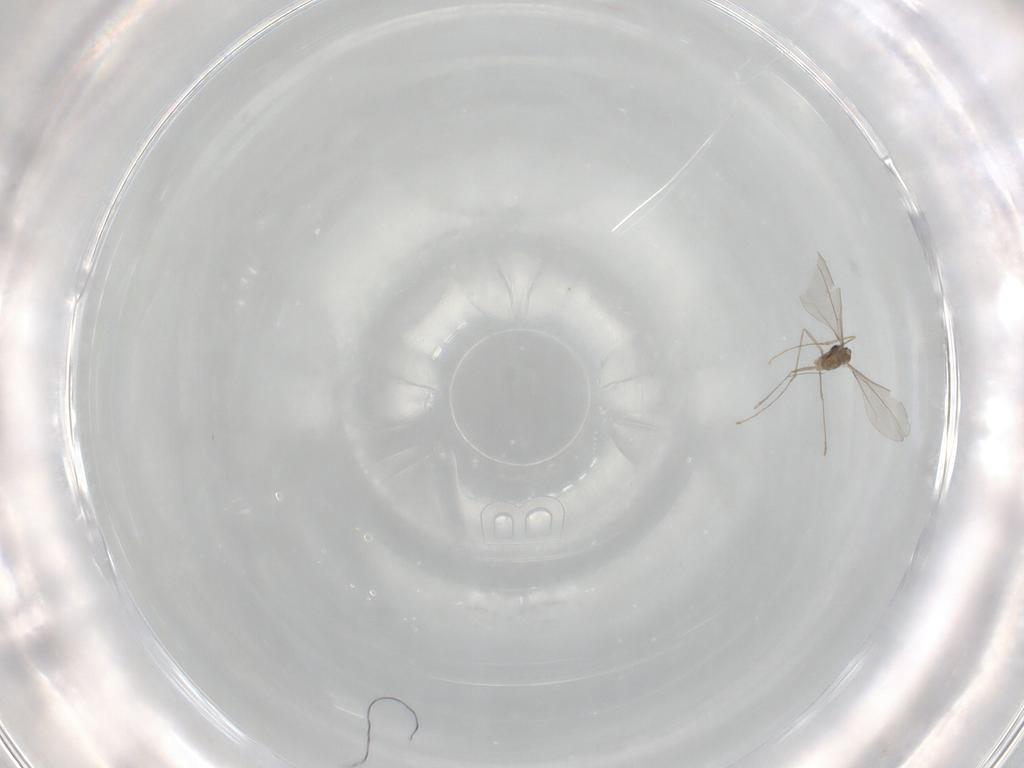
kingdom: Animalia
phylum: Arthropoda
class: Insecta
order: Diptera
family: Cecidomyiidae
